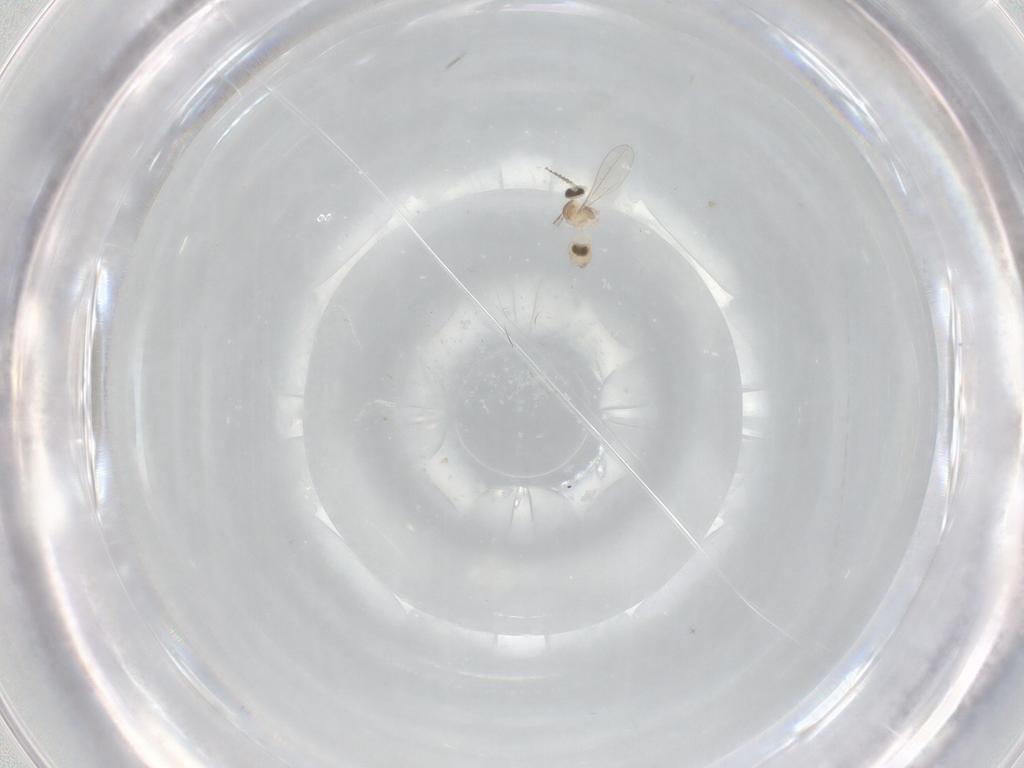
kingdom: Animalia
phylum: Arthropoda
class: Insecta
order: Diptera
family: Cecidomyiidae
